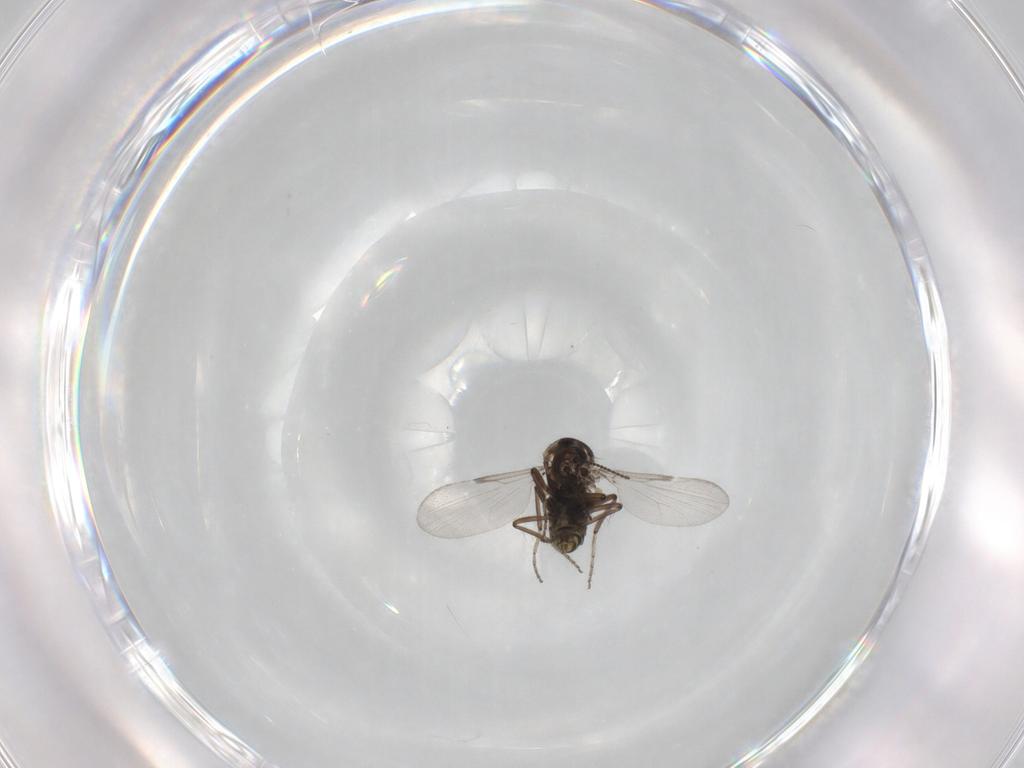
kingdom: Animalia
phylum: Arthropoda
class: Insecta
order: Diptera
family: Ceratopogonidae
